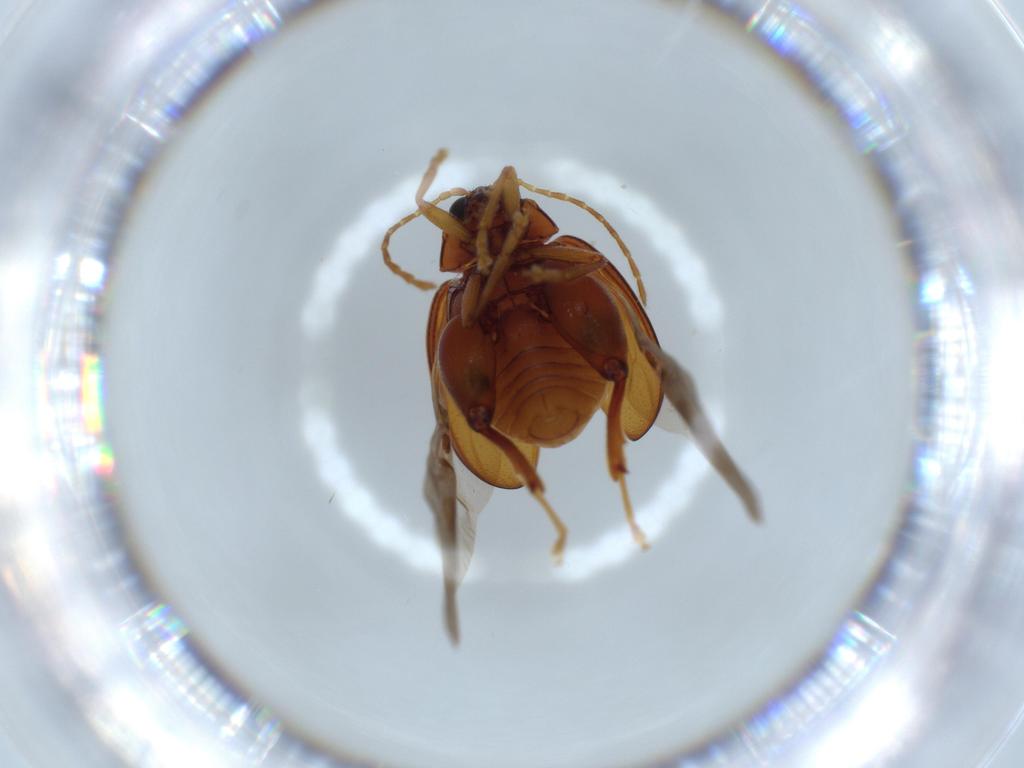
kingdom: Animalia
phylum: Arthropoda
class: Insecta
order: Coleoptera
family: Chrysomelidae
